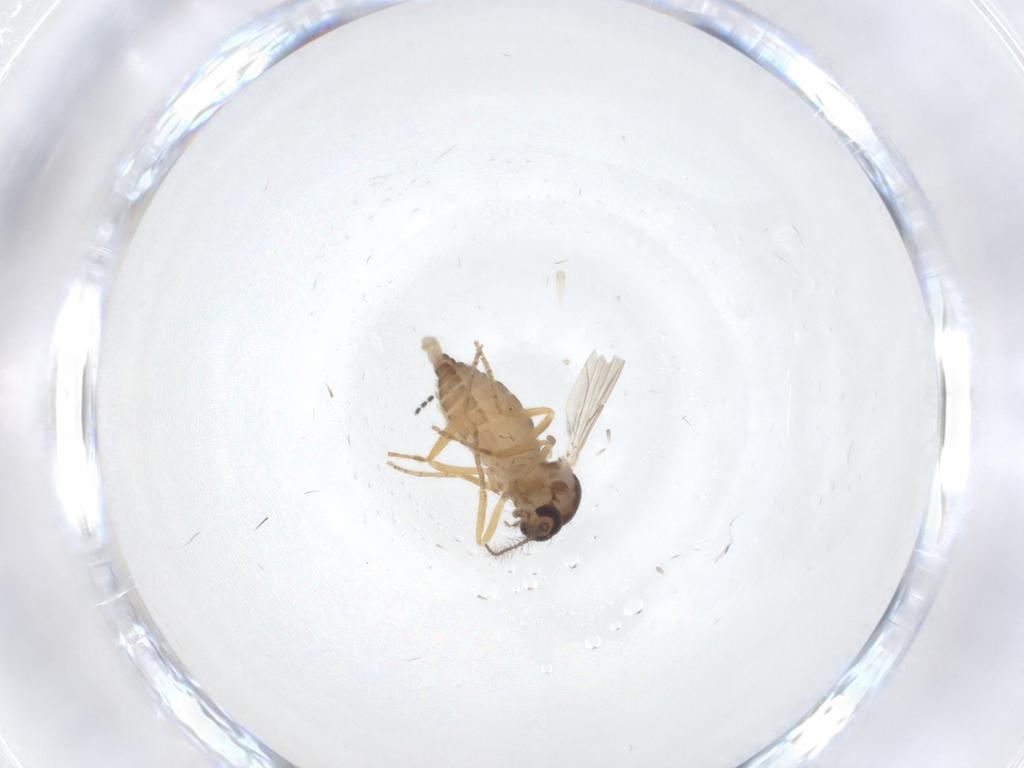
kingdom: Animalia
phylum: Arthropoda
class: Insecta
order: Diptera
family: Ceratopogonidae
